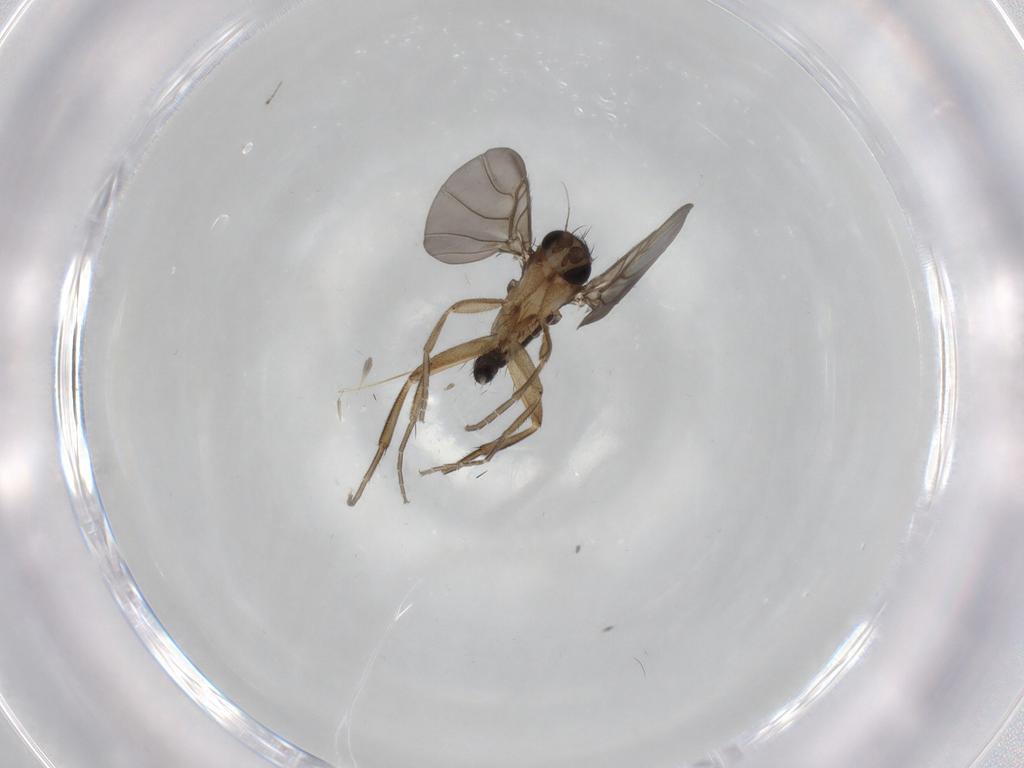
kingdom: Animalia
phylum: Arthropoda
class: Insecta
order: Diptera
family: Phoridae
